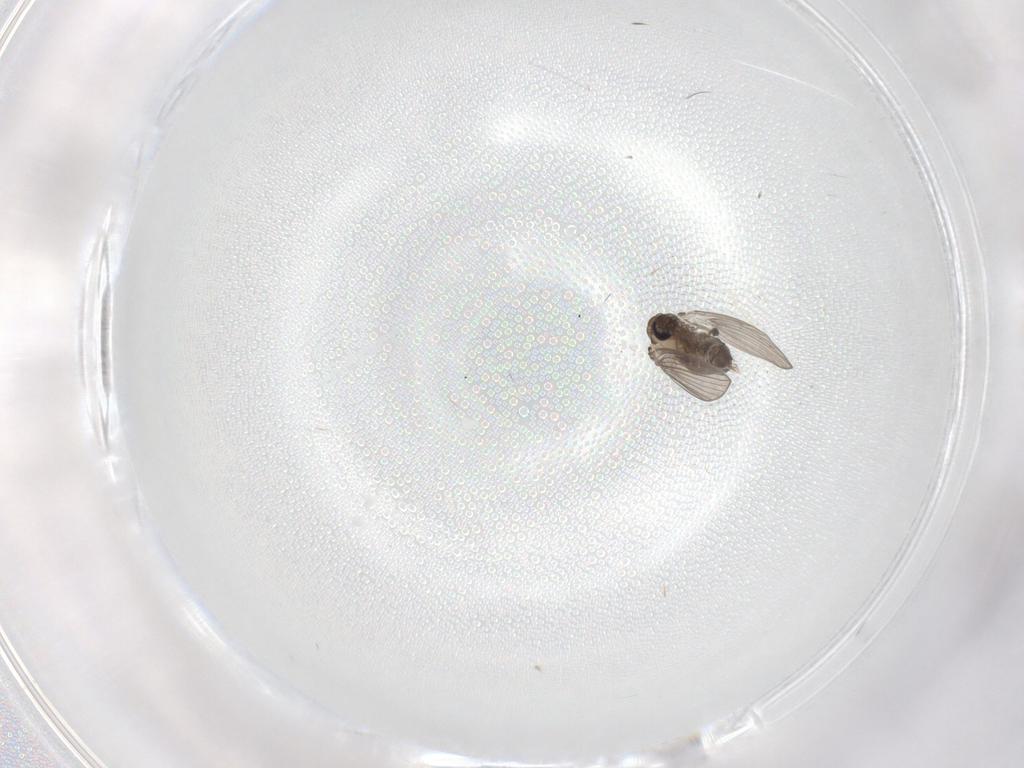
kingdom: Animalia
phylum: Arthropoda
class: Insecta
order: Diptera
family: Psychodidae
